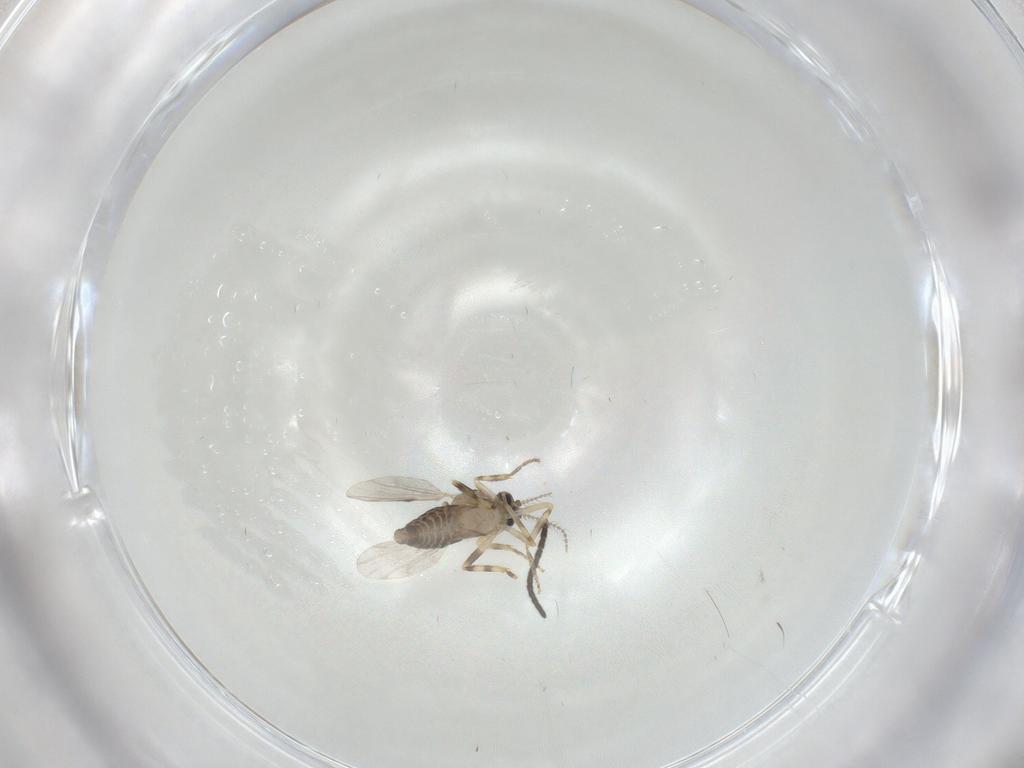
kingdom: Animalia
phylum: Arthropoda
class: Insecta
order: Diptera
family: Ceratopogonidae
